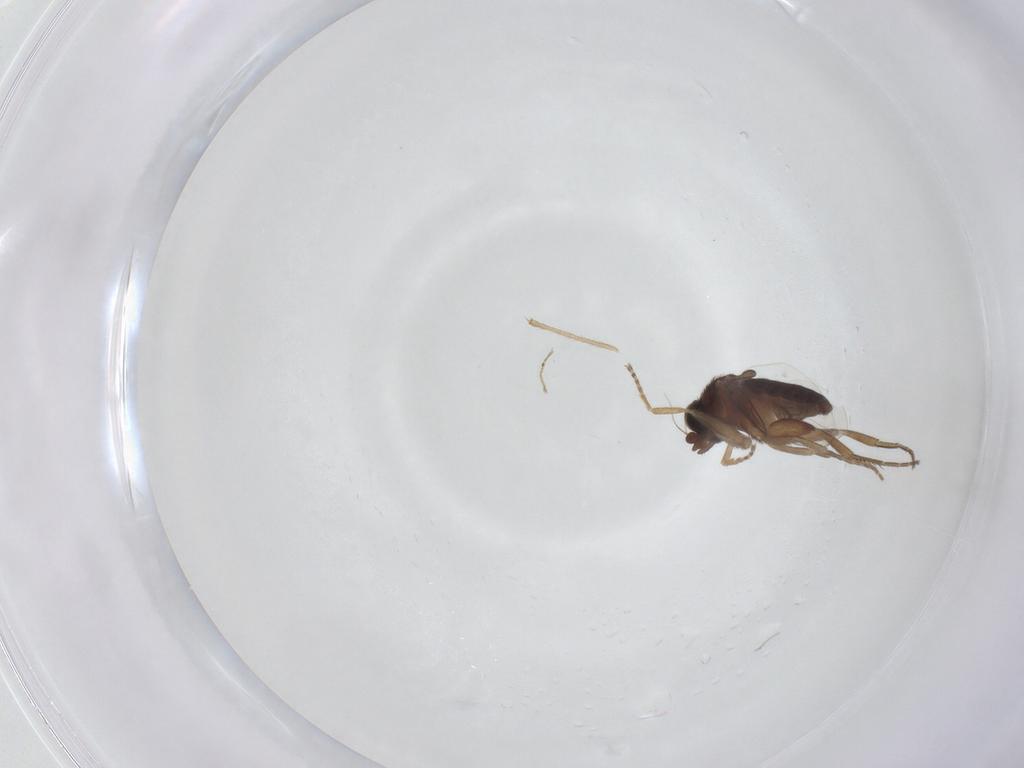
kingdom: Animalia
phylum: Arthropoda
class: Insecta
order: Diptera
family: Phoridae
